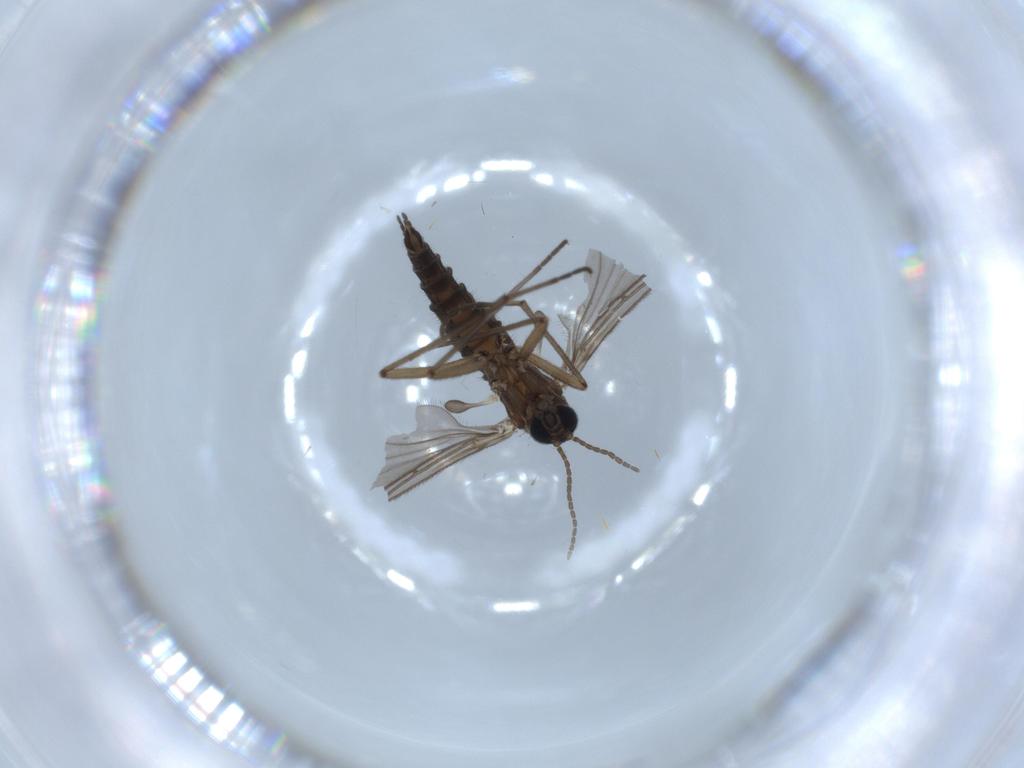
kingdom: Animalia
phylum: Arthropoda
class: Insecta
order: Diptera
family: Sciaridae
